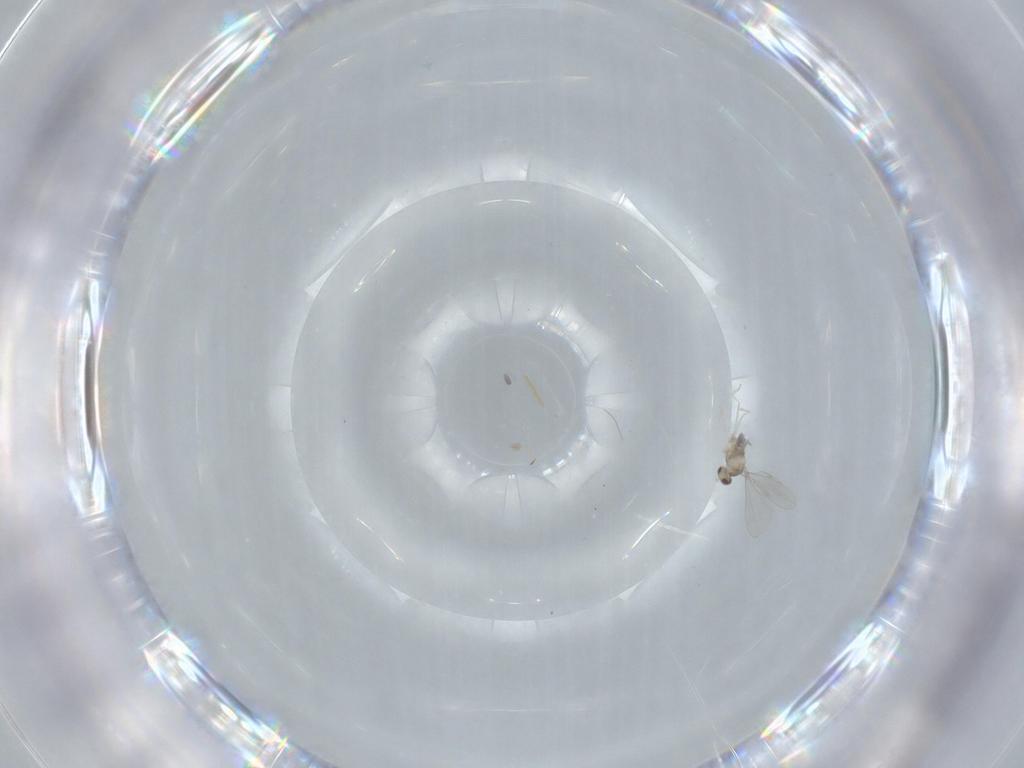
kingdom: Animalia
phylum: Arthropoda
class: Insecta
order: Diptera
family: Cecidomyiidae
